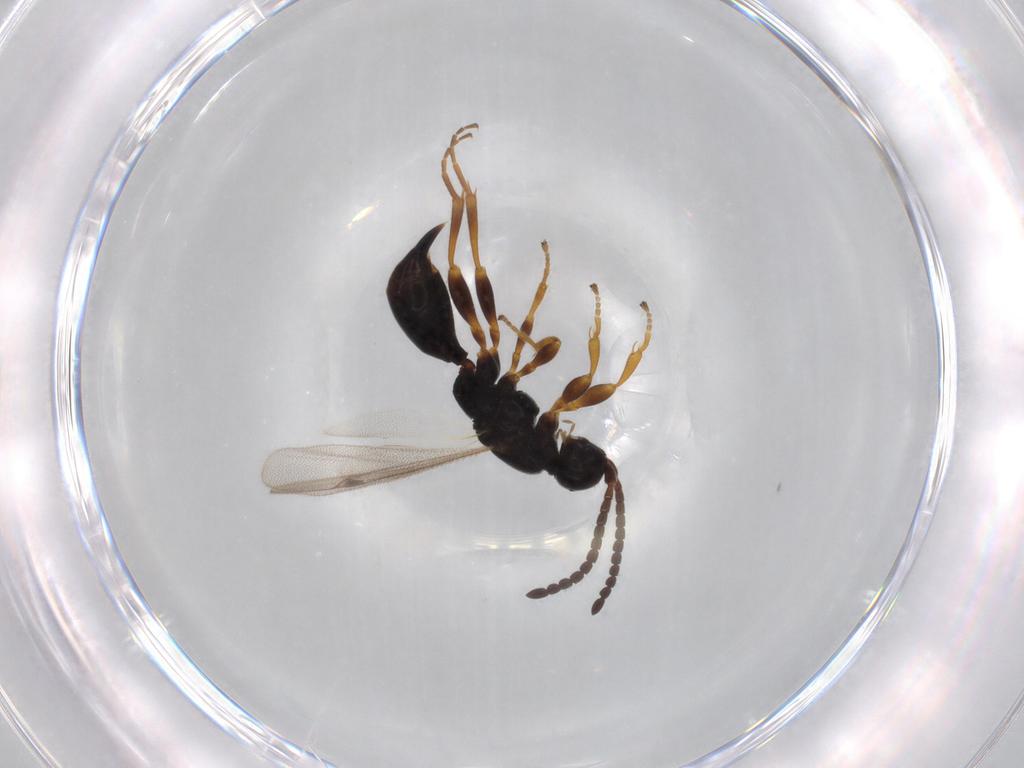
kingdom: Animalia
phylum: Arthropoda
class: Insecta
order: Hymenoptera
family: Proctotrupidae
